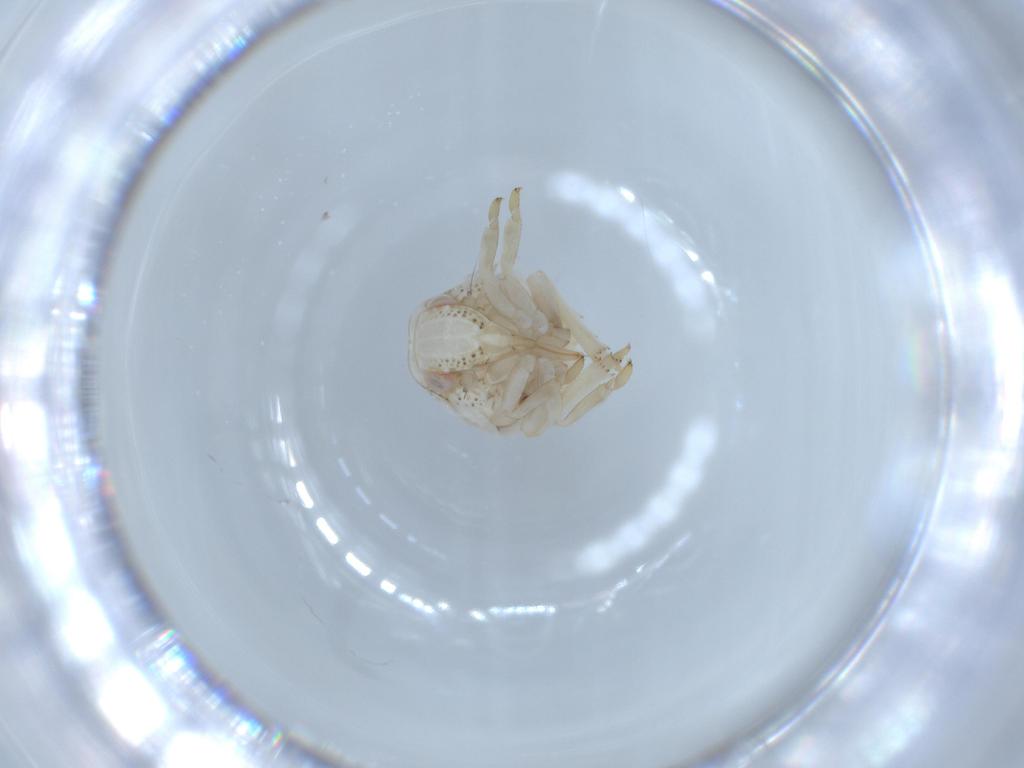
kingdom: Animalia
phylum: Arthropoda
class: Insecta
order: Hemiptera
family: Acanaloniidae
